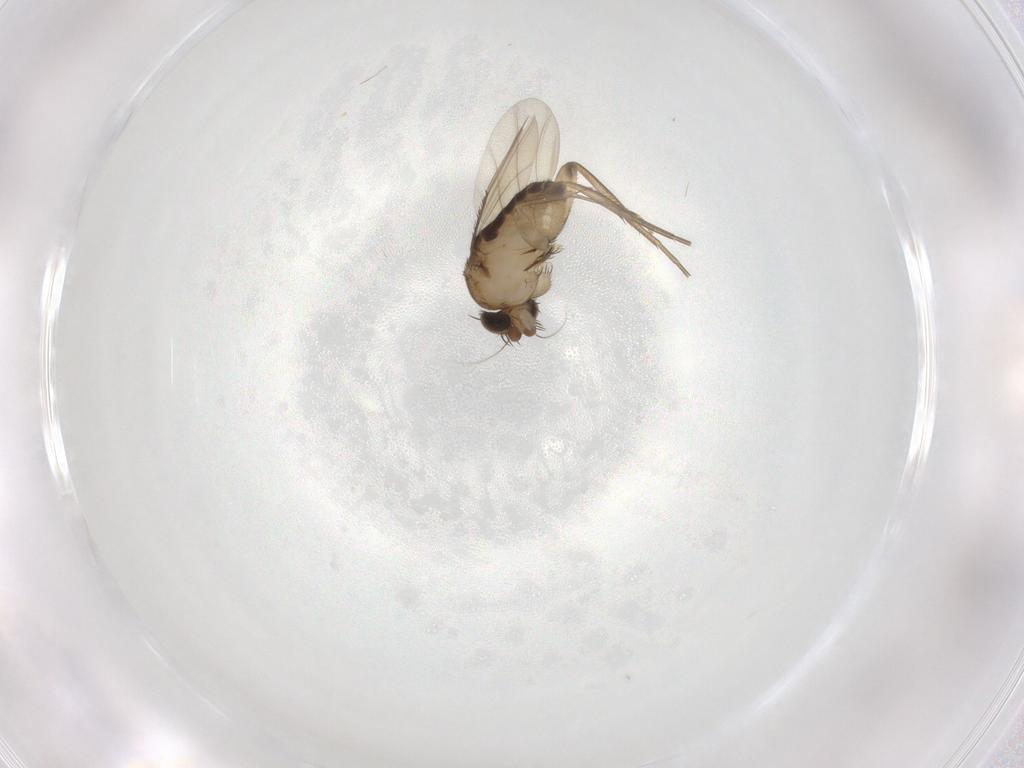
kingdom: Animalia
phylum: Arthropoda
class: Insecta
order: Diptera
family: Phoridae
